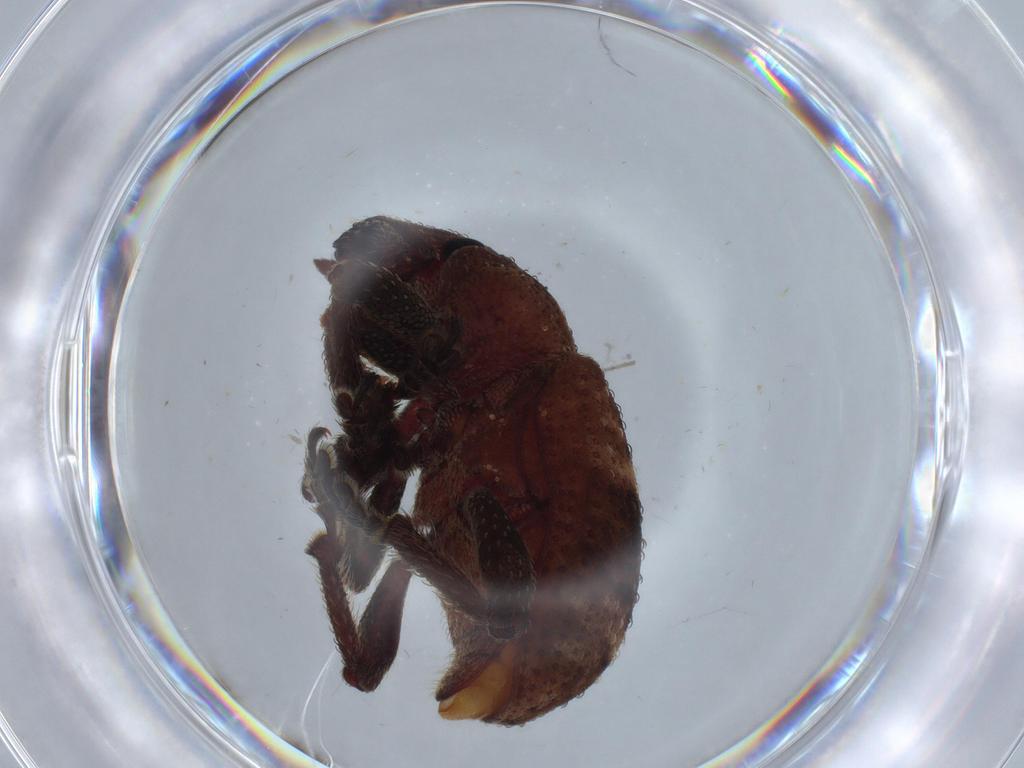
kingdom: Animalia
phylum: Arthropoda
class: Insecta
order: Coleoptera
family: Curculionidae
